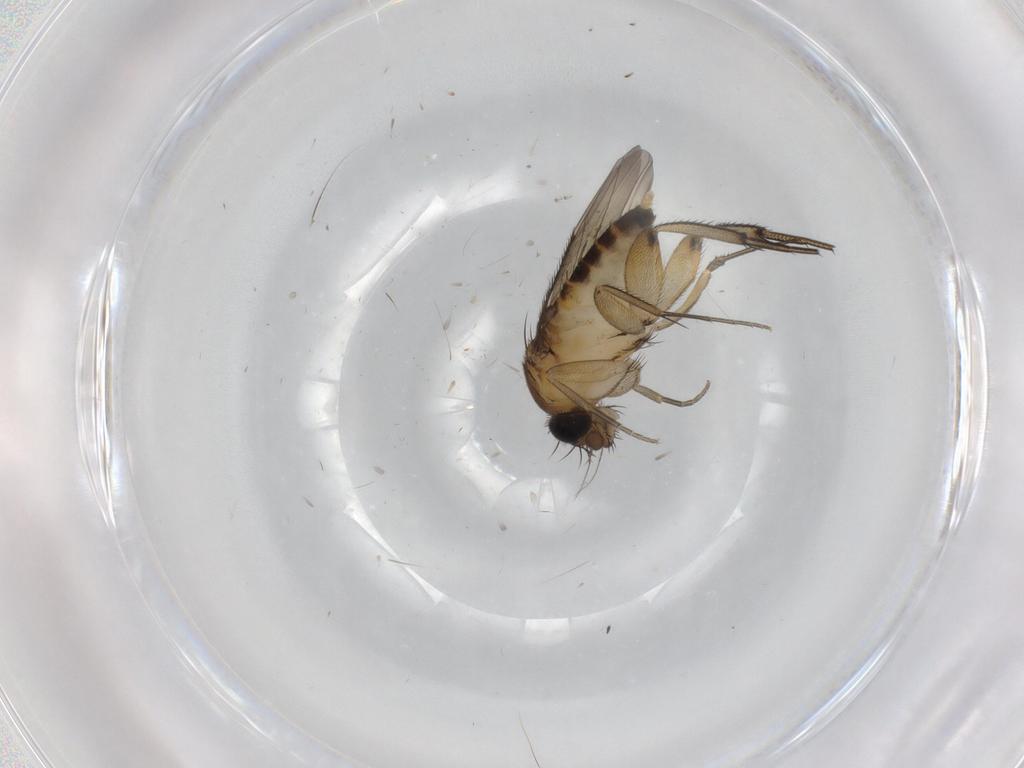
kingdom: Animalia
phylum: Arthropoda
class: Insecta
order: Diptera
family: Phoridae
